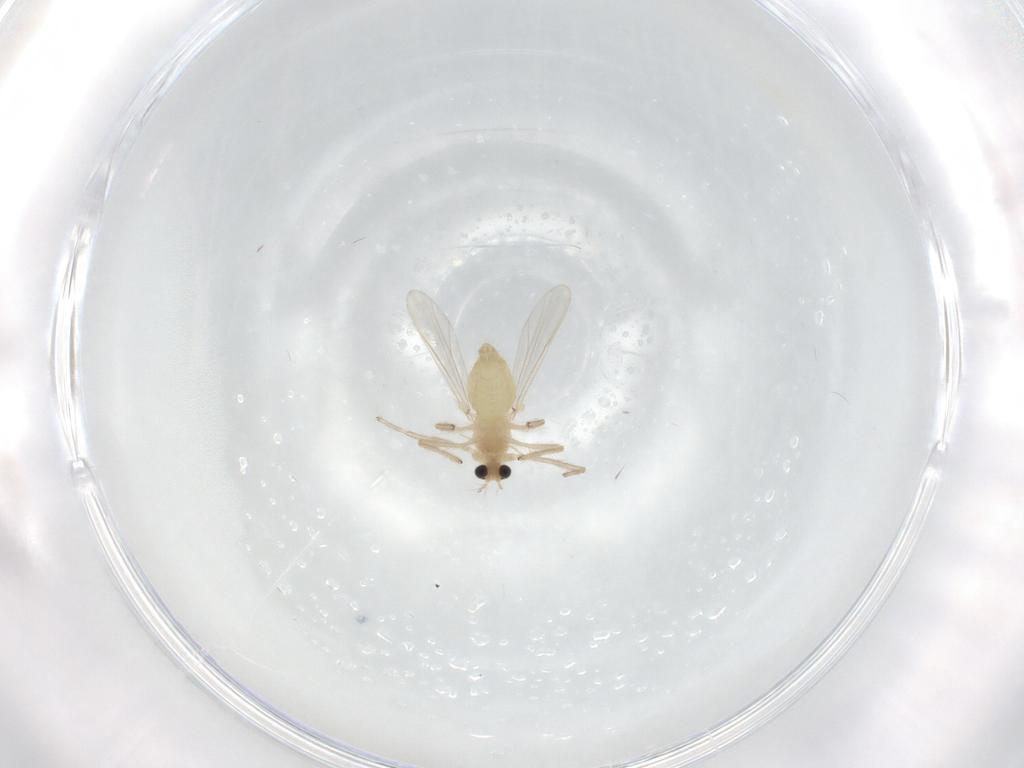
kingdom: Animalia
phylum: Arthropoda
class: Insecta
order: Diptera
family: Chironomidae
